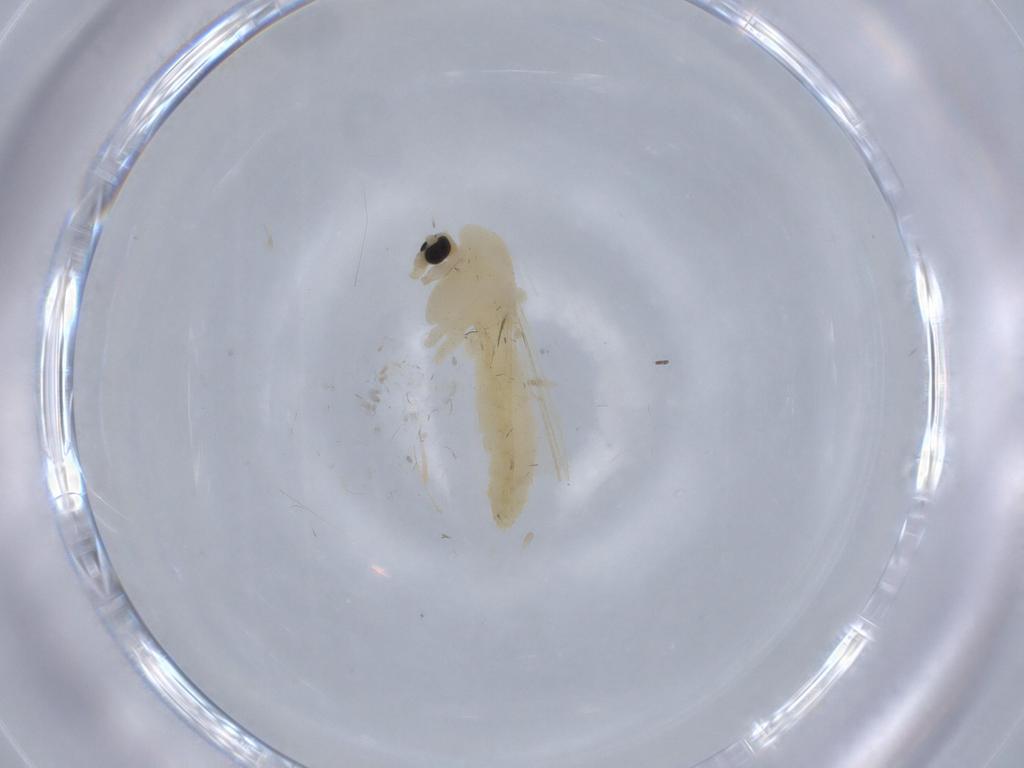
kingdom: Animalia
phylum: Arthropoda
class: Insecta
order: Diptera
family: Chironomidae
